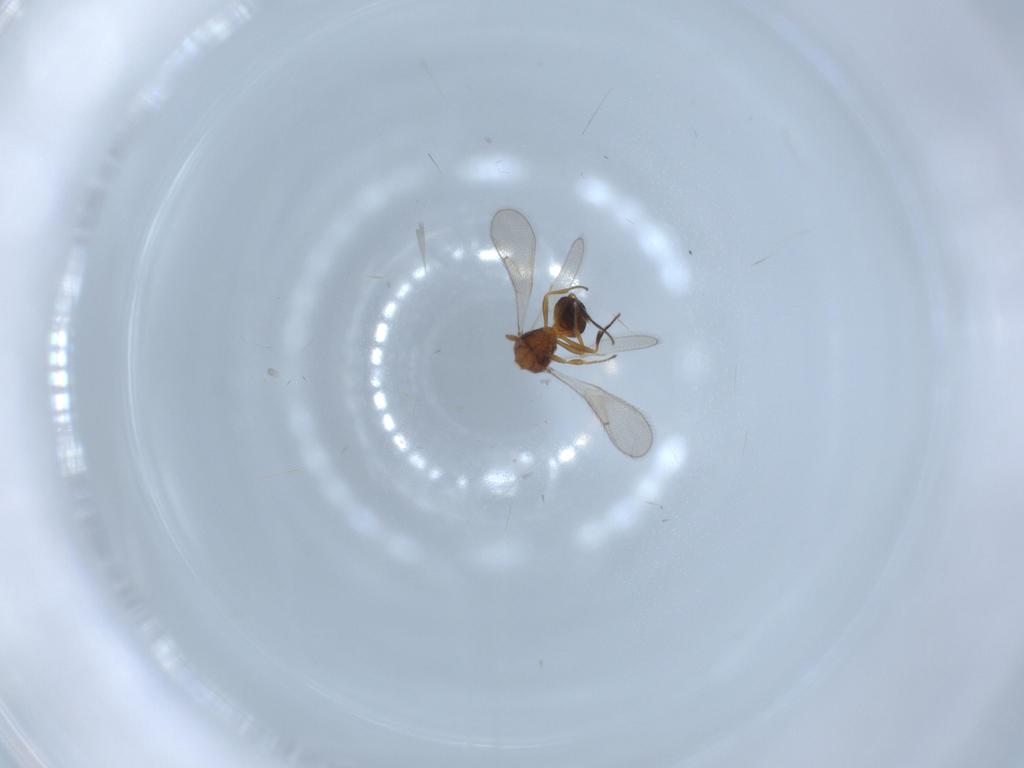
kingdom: Animalia
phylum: Arthropoda
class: Insecta
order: Hymenoptera
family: Scelionidae
